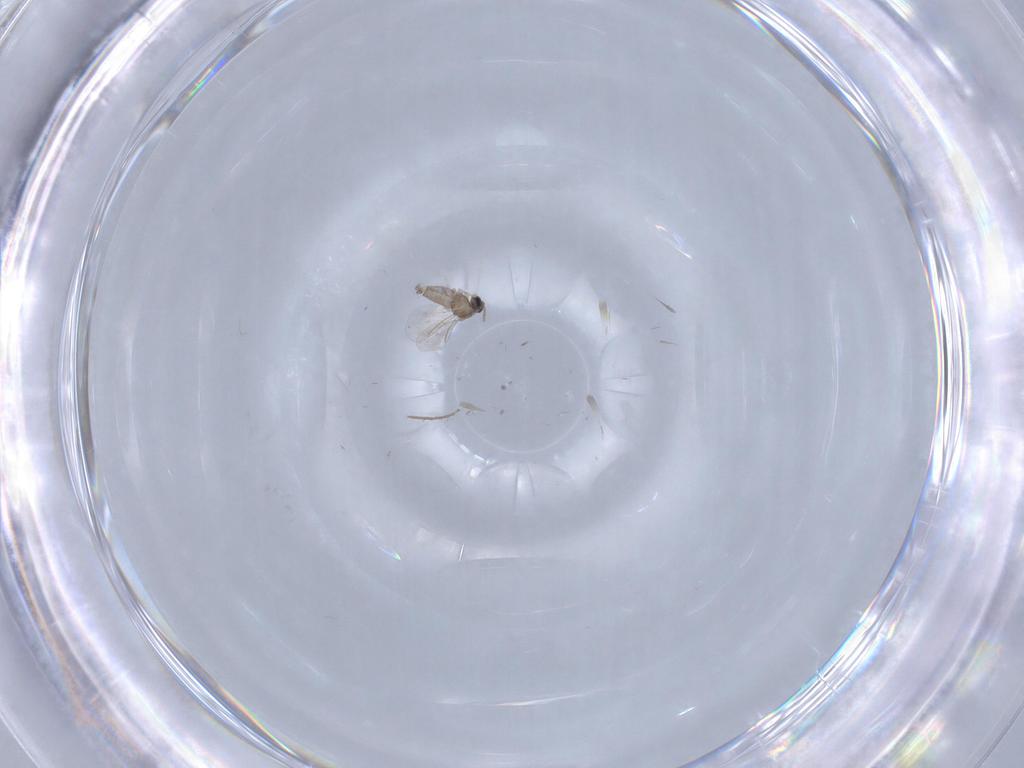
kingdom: Animalia
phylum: Arthropoda
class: Insecta
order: Diptera
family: Cecidomyiidae
